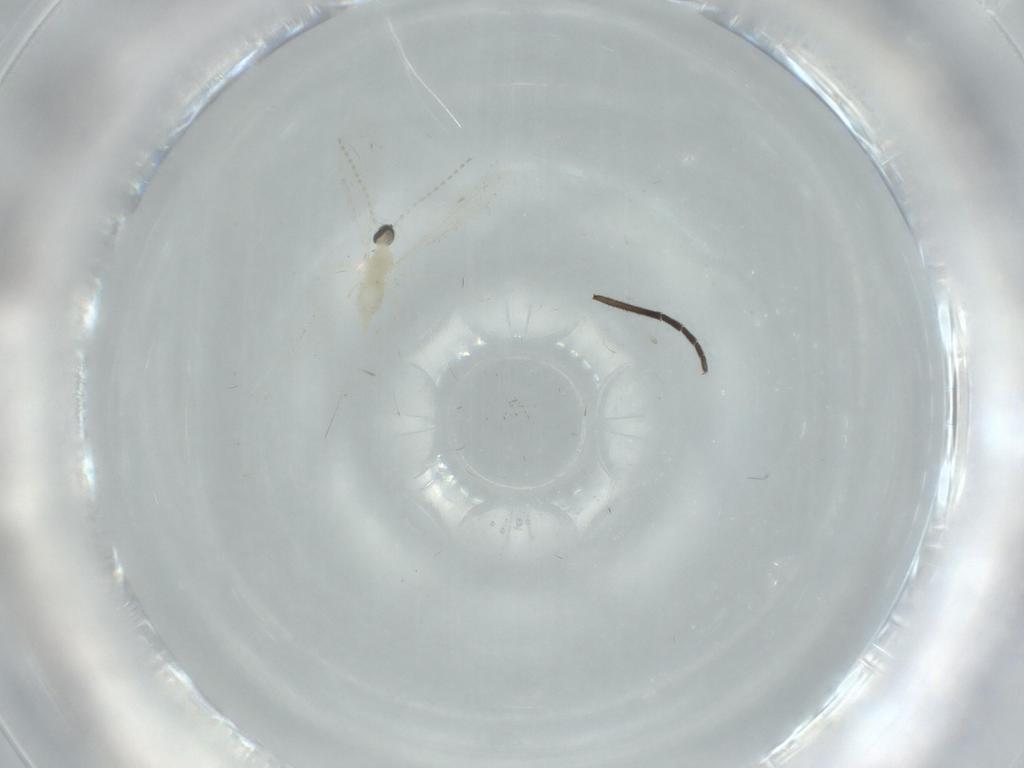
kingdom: Animalia
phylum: Arthropoda
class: Insecta
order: Diptera
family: Cecidomyiidae
